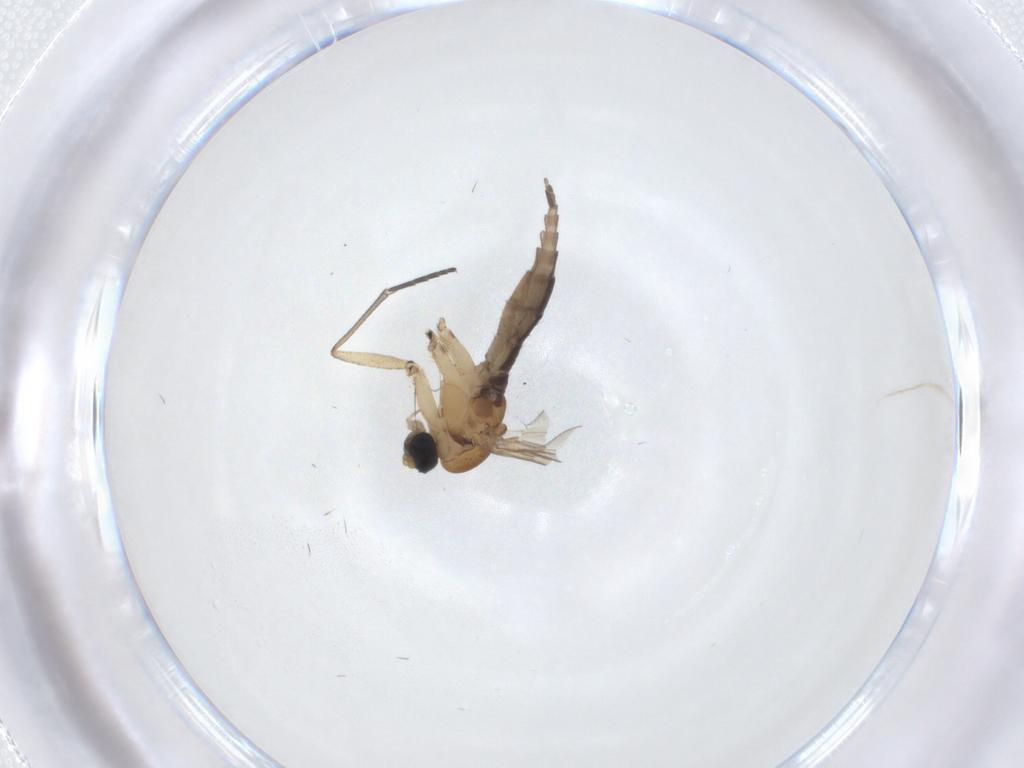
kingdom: Animalia
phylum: Arthropoda
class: Insecta
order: Diptera
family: Sciaridae
